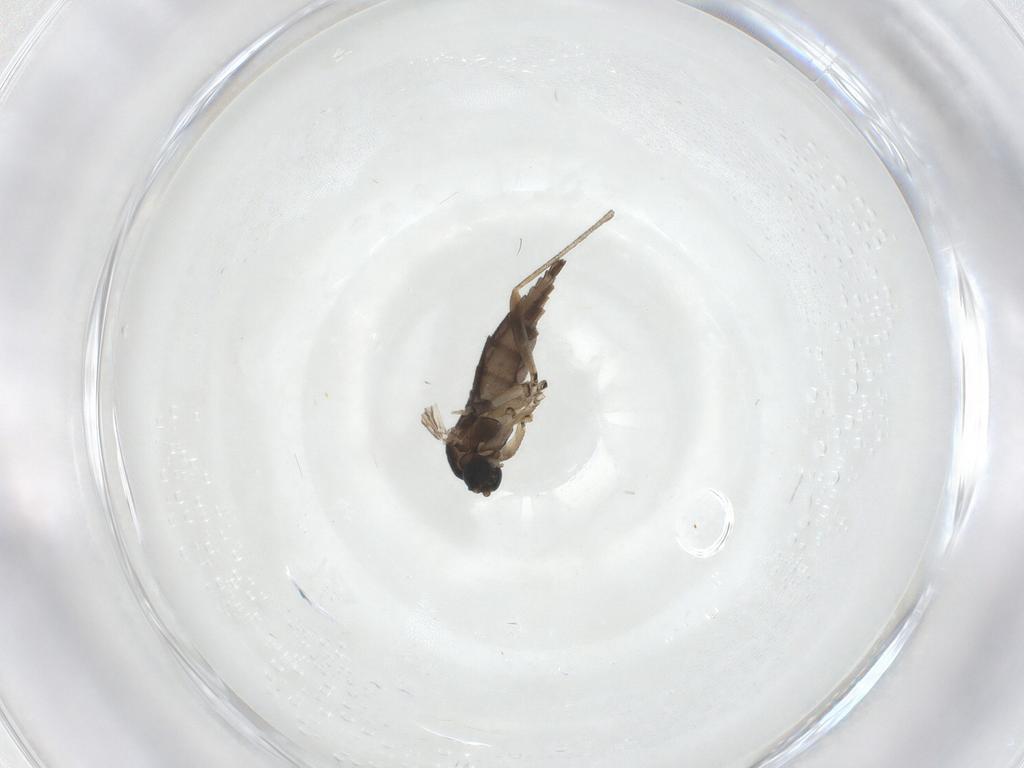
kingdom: Animalia
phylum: Arthropoda
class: Insecta
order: Diptera
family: Sciaridae
